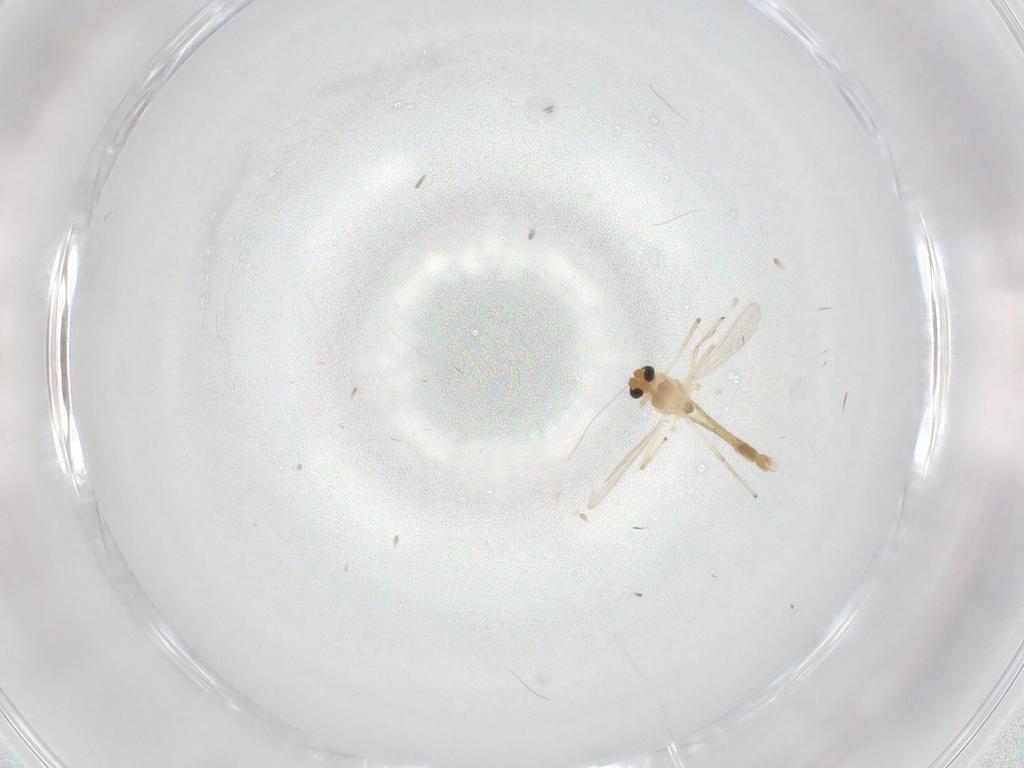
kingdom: Animalia
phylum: Arthropoda
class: Insecta
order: Diptera
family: Chironomidae
